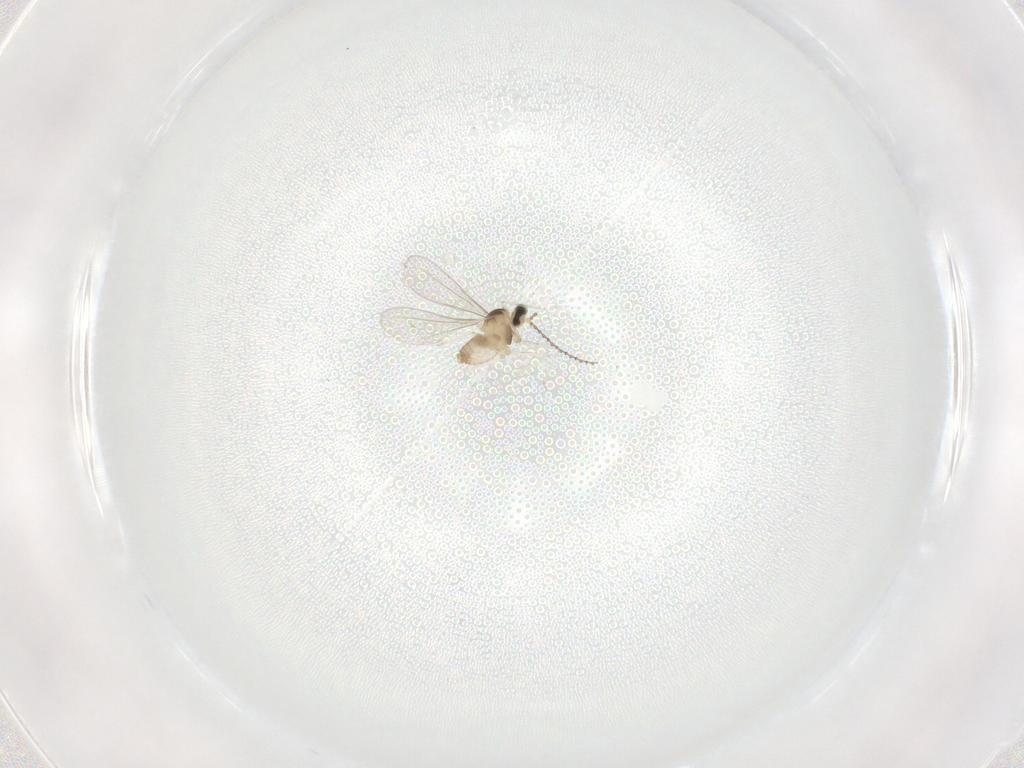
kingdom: Animalia
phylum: Arthropoda
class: Insecta
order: Diptera
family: Cecidomyiidae
